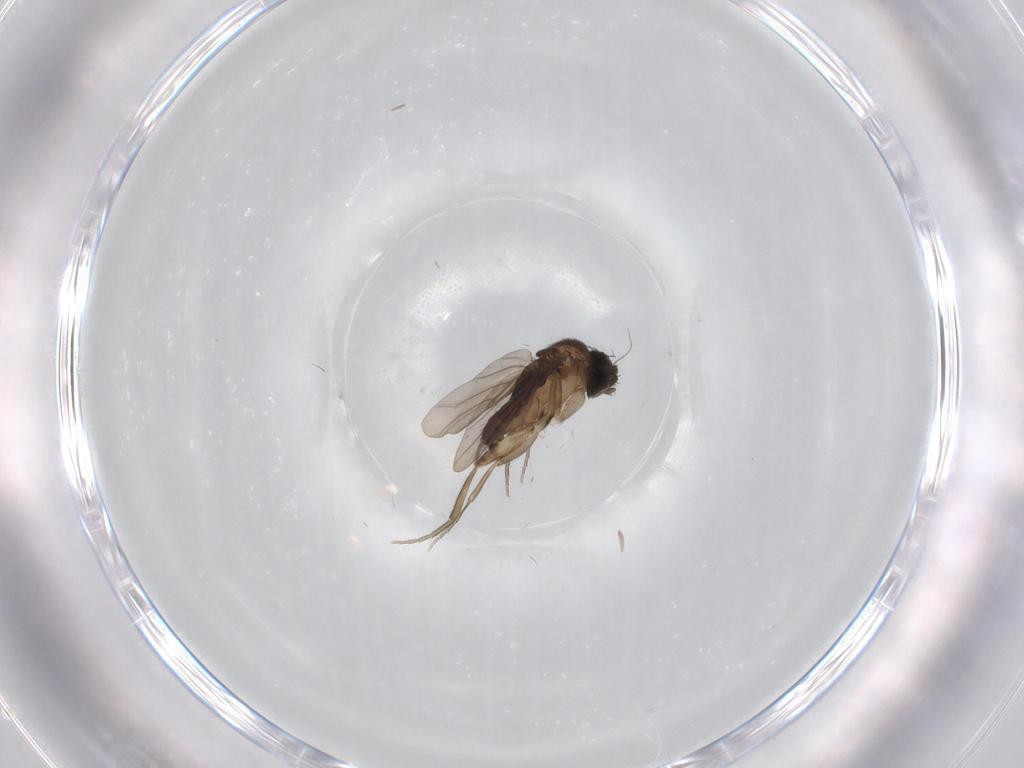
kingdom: Animalia
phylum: Arthropoda
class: Insecta
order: Diptera
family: Phoridae
